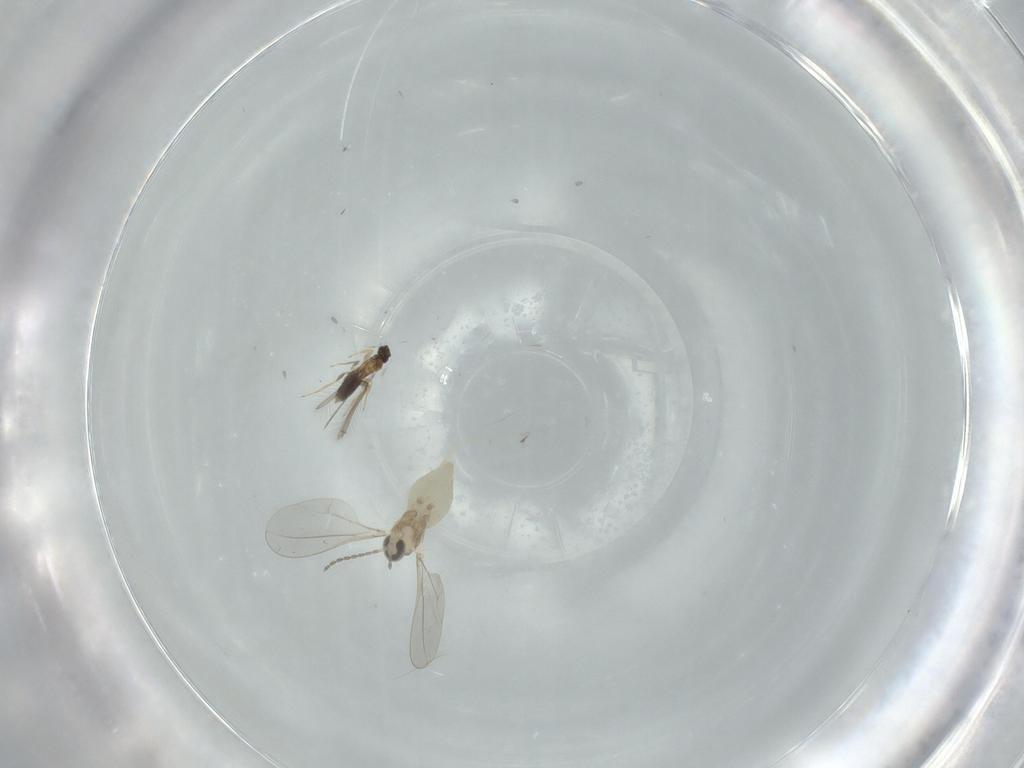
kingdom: Animalia
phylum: Arthropoda
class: Insecta
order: Diptera
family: Cecidomyiidae
